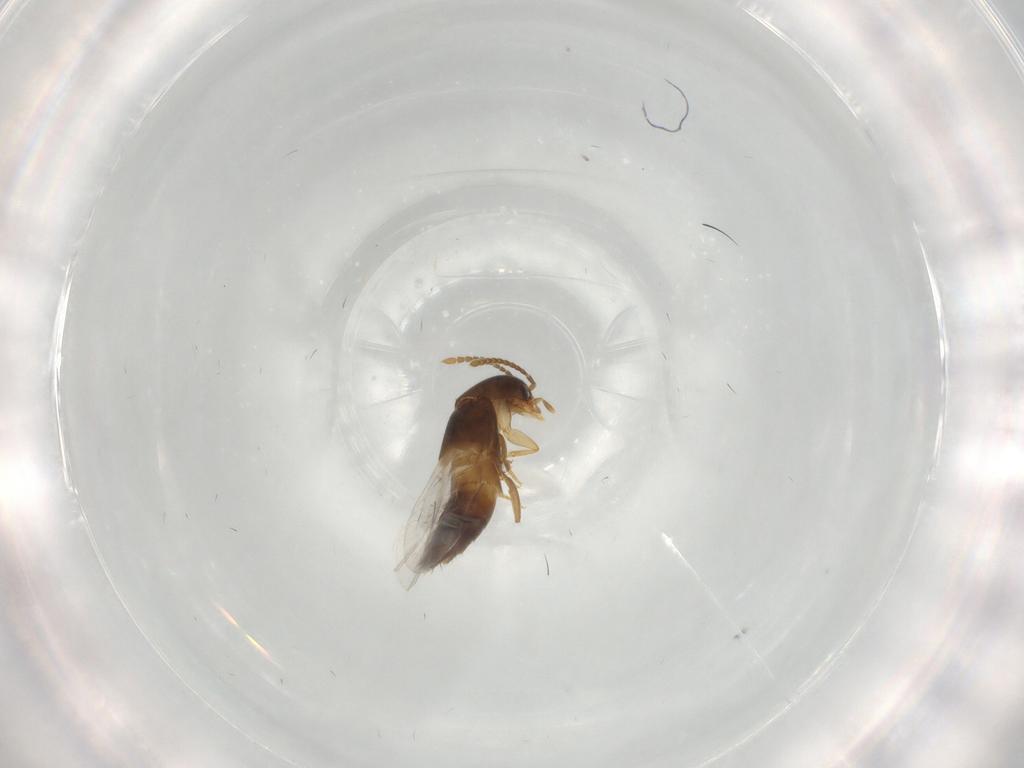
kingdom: Animalia
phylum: Arthropoda
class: Insecta
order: Coleoptera
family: Staphylinidae
